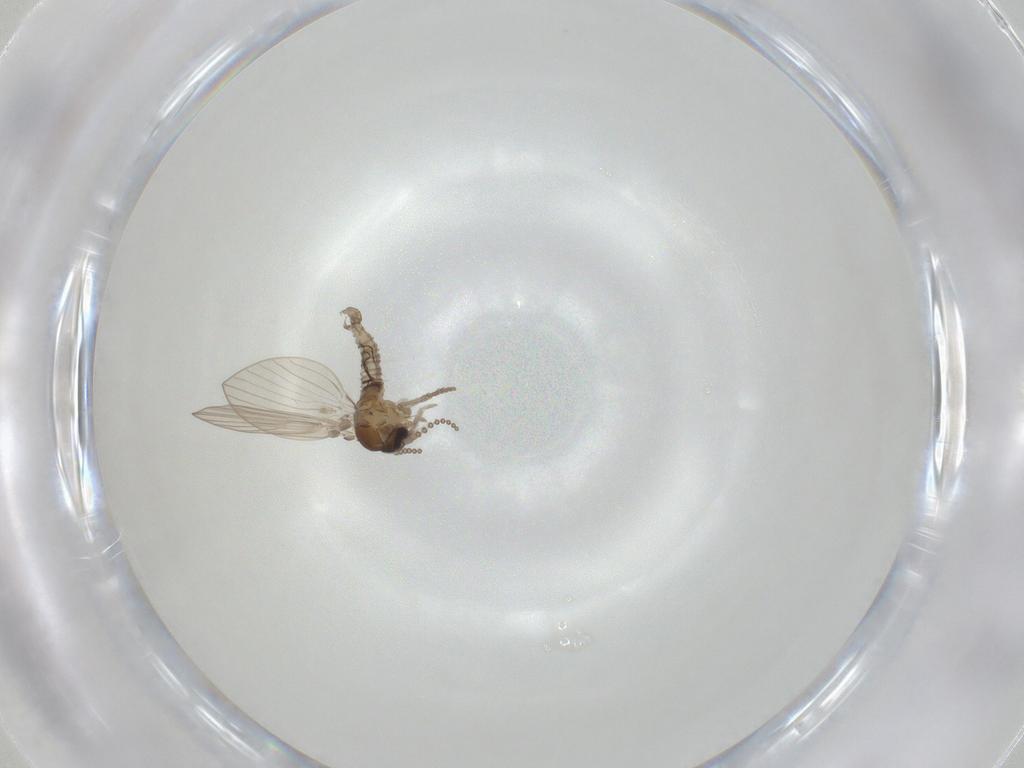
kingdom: Animalia
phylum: Arthropoda
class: Insecta
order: Diptera
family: Psychodidae
